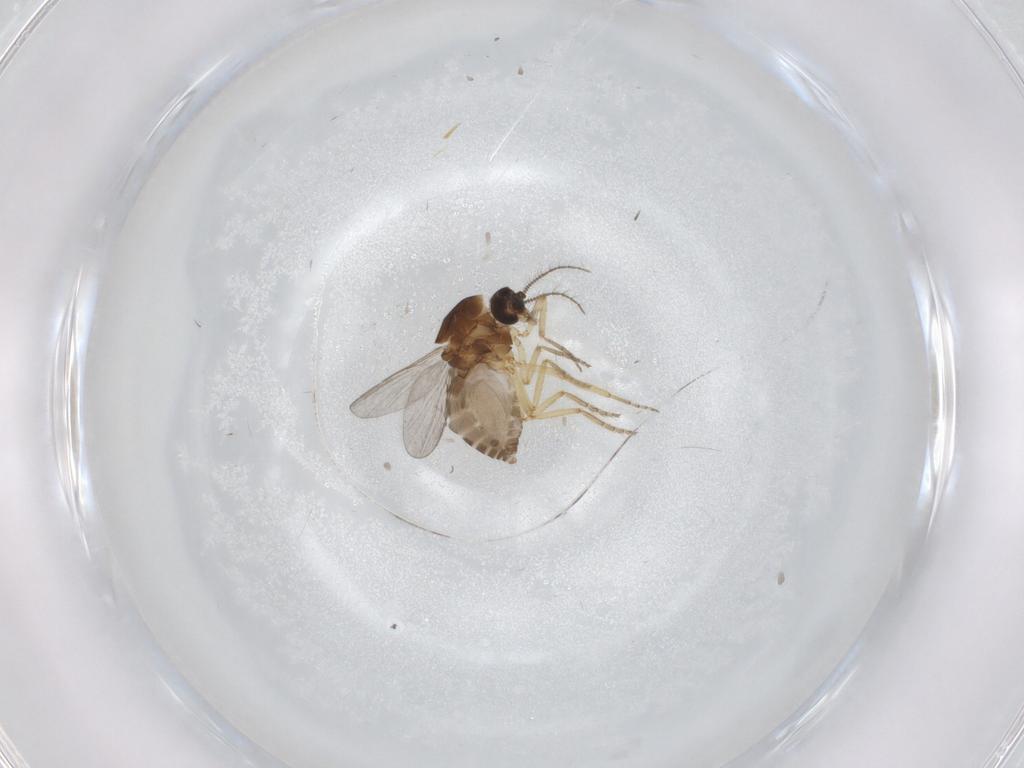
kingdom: Animalia
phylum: Arthropoda
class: Insecta
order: Diptera
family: Ceratopogonidae
